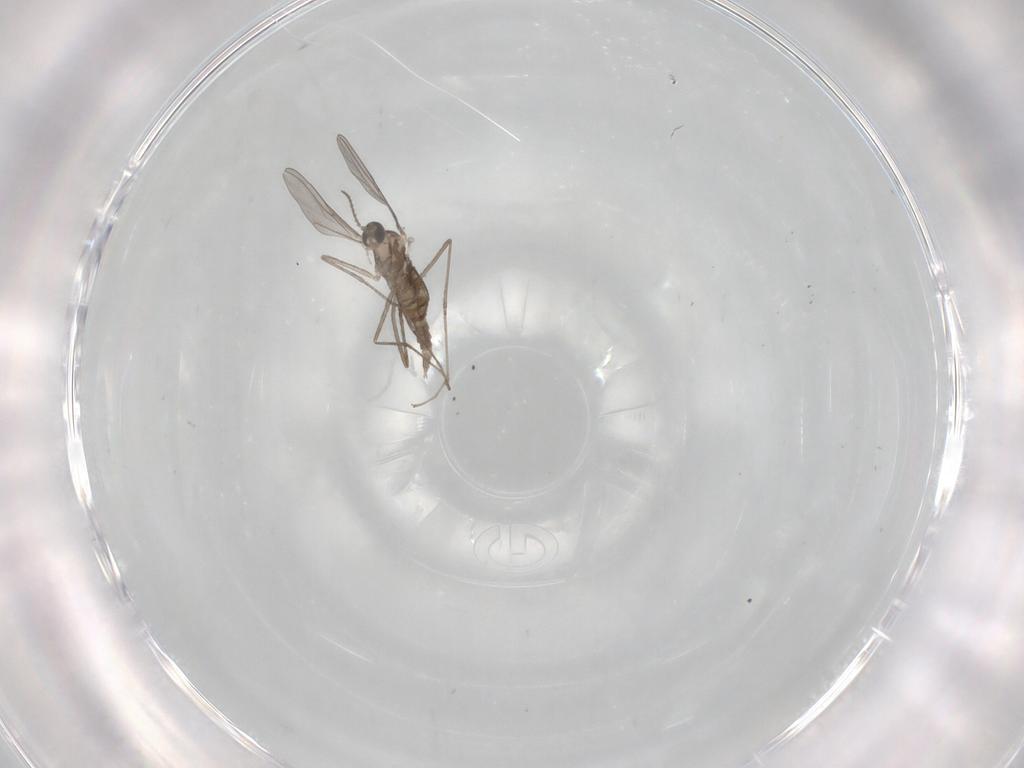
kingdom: Animalia
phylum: Arthropoda
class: Insecta
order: Diptera
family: Cecidomyiidae
